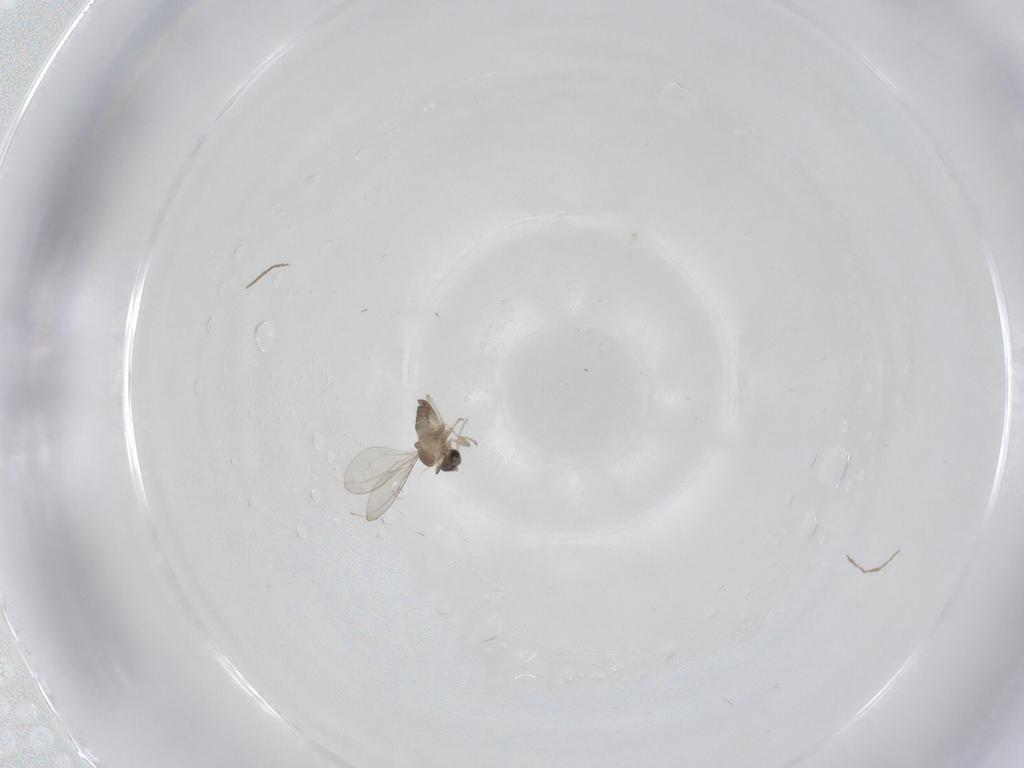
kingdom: Animalia
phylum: Arthropoda
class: Insecta
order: Diptera
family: Chironomidae
